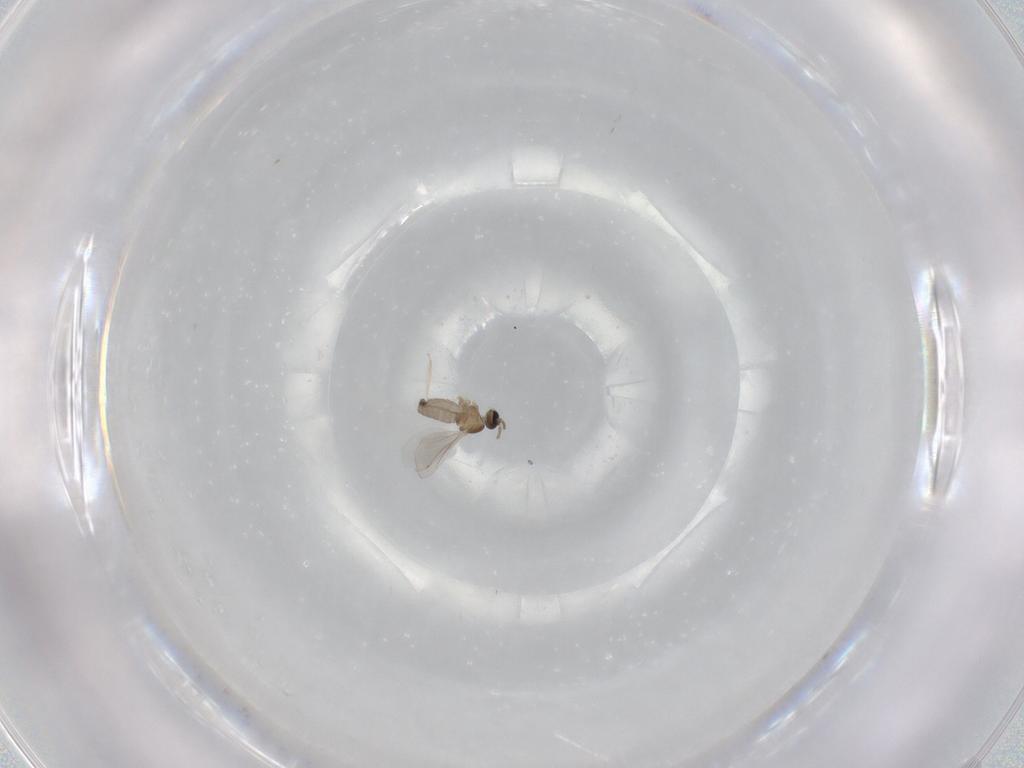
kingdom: Animalia
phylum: Arthropoda
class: Insecta
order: Diptera
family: Cecidomyiidae
